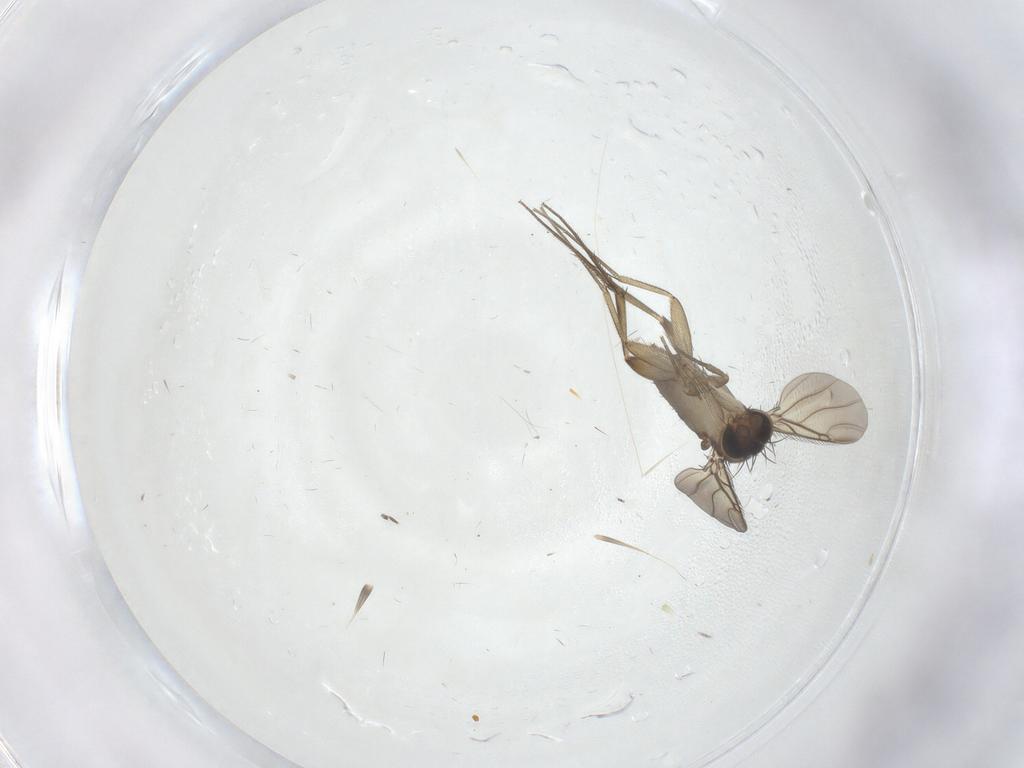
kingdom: Animalia
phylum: Arthropoda
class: Insecta
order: Diptera
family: Phoridae
